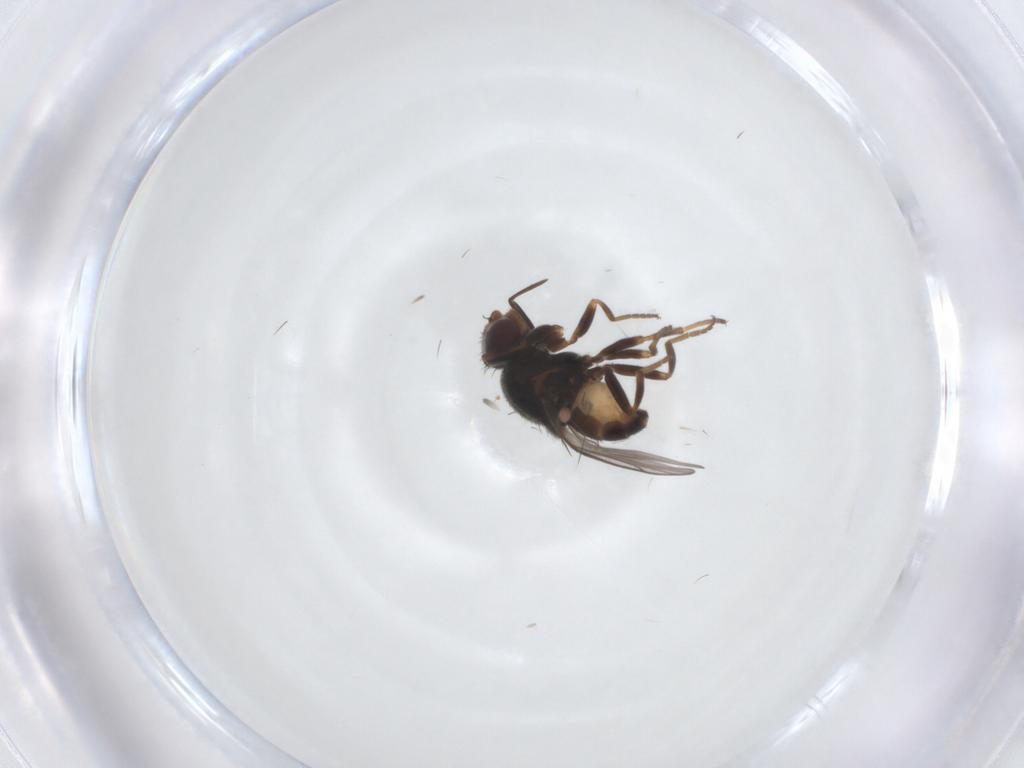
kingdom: Animalia
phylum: Arthropoda
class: Insecta
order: Diptera
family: Chloropidae
